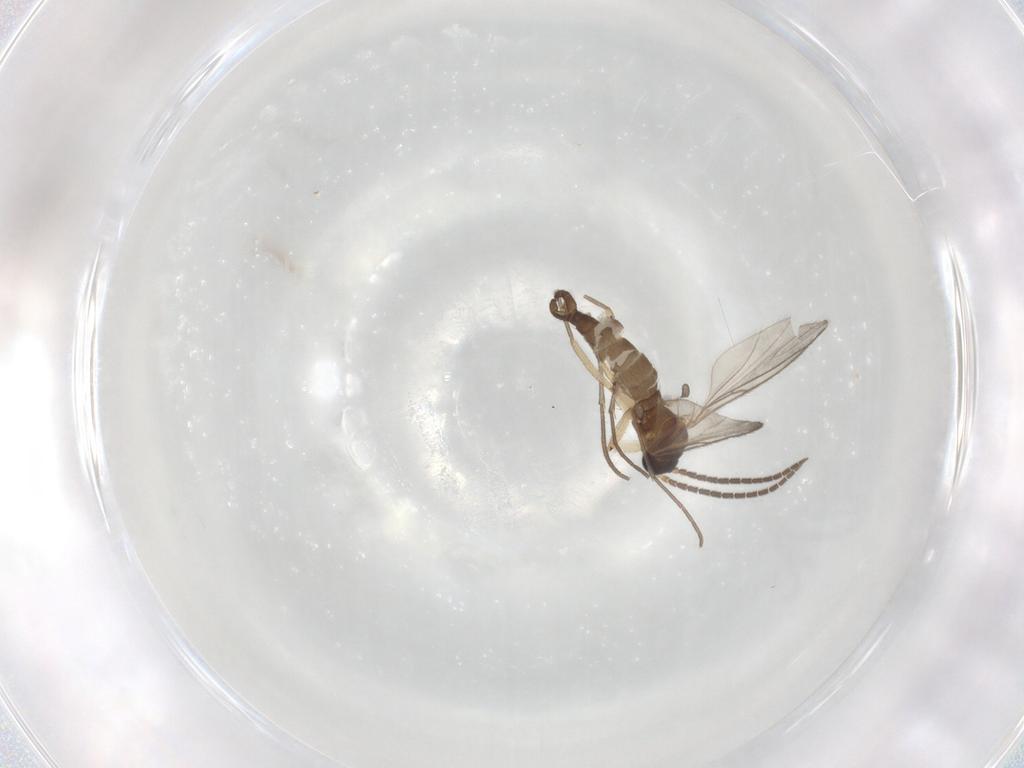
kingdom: Animalia
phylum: Arthropoda
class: Insecta
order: Diptera
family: Sciaridae
